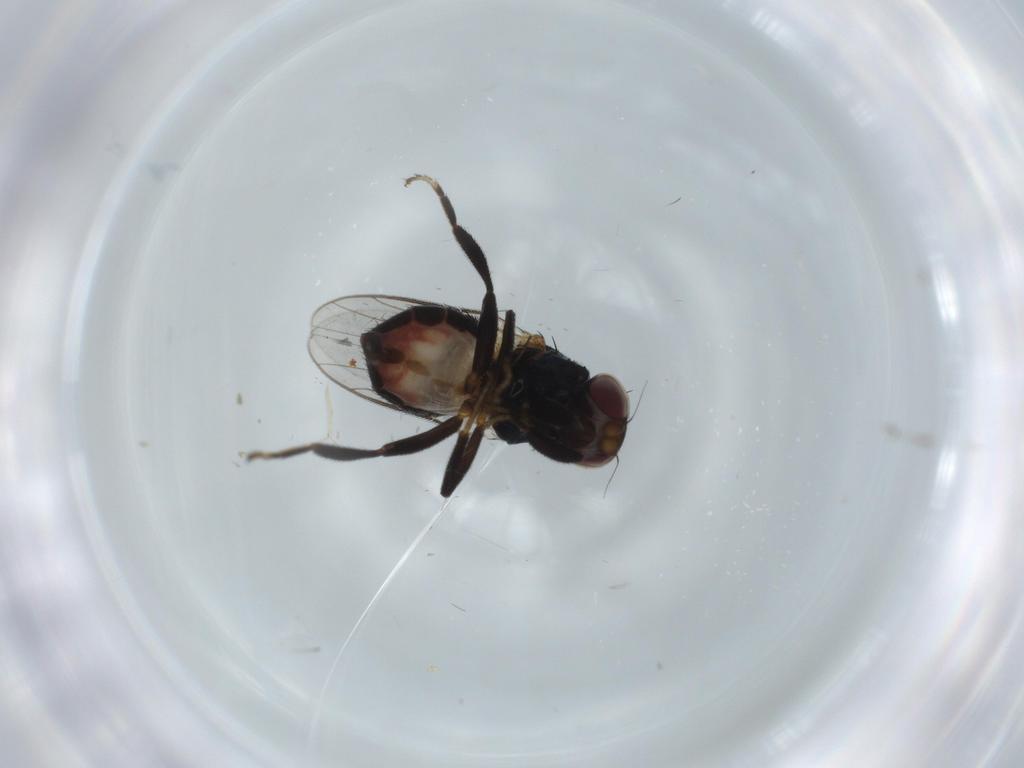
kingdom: Animalia
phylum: Arthropoda
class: Insecta
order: Diptera
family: Chloropidae
